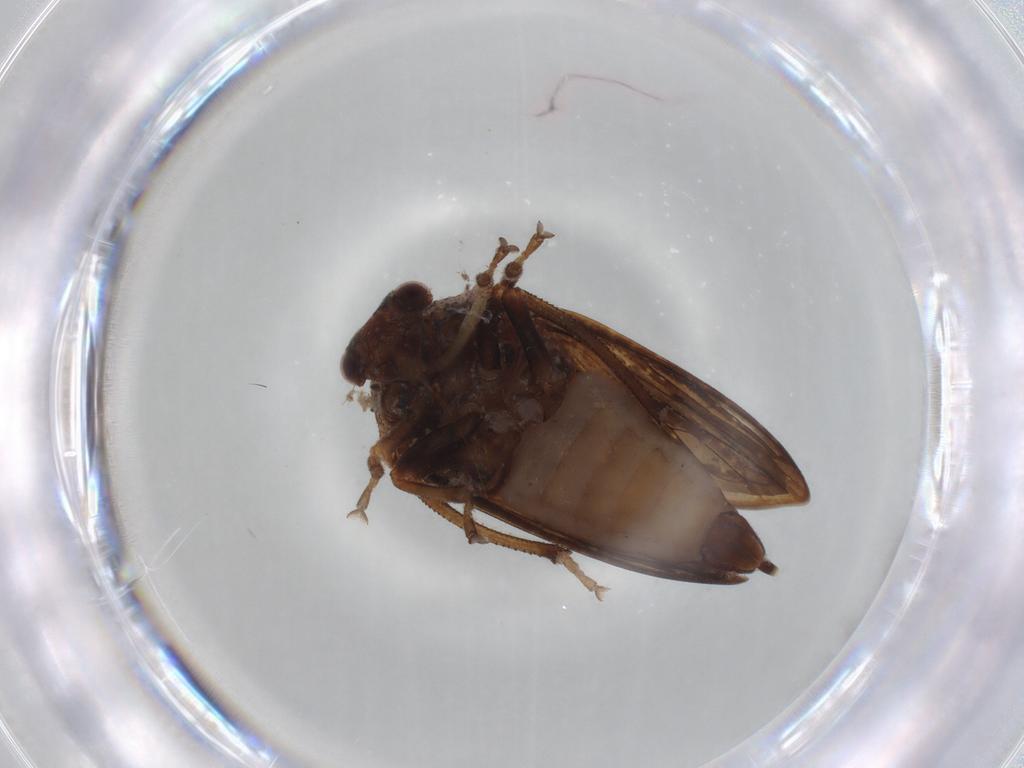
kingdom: Animalia
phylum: Arthropoda
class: Insecta
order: Hemiptera
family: Aetalionidae
